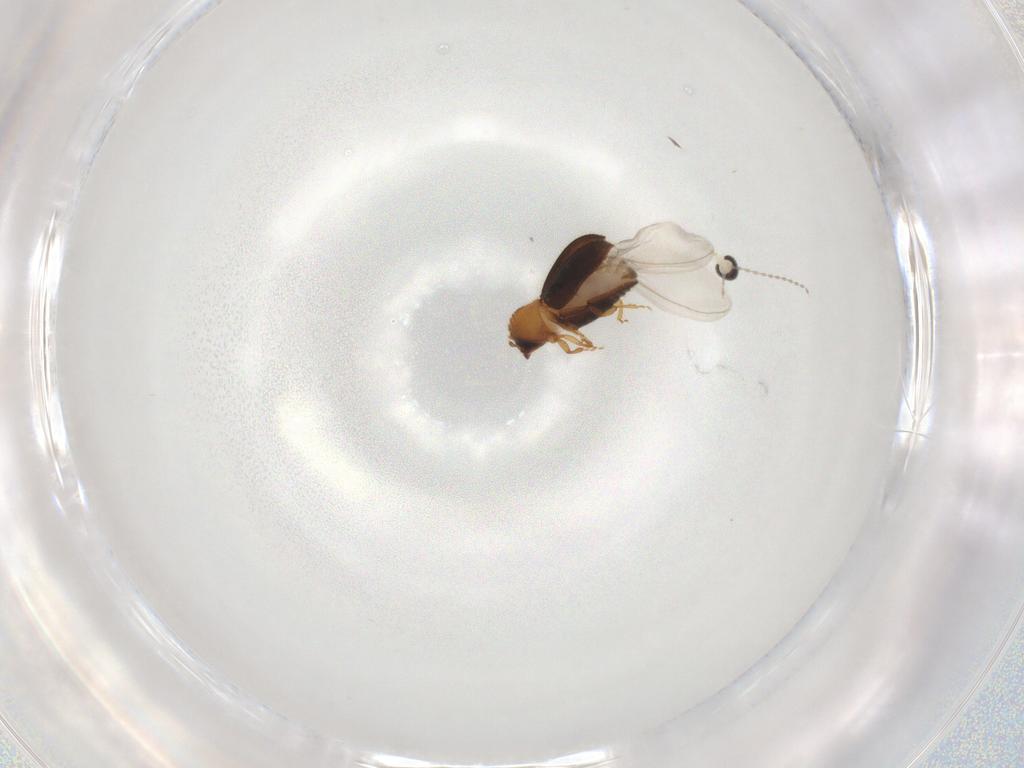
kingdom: Animalia
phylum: Arthropoda
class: Insecta
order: Coleoptera
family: Curculionidae
